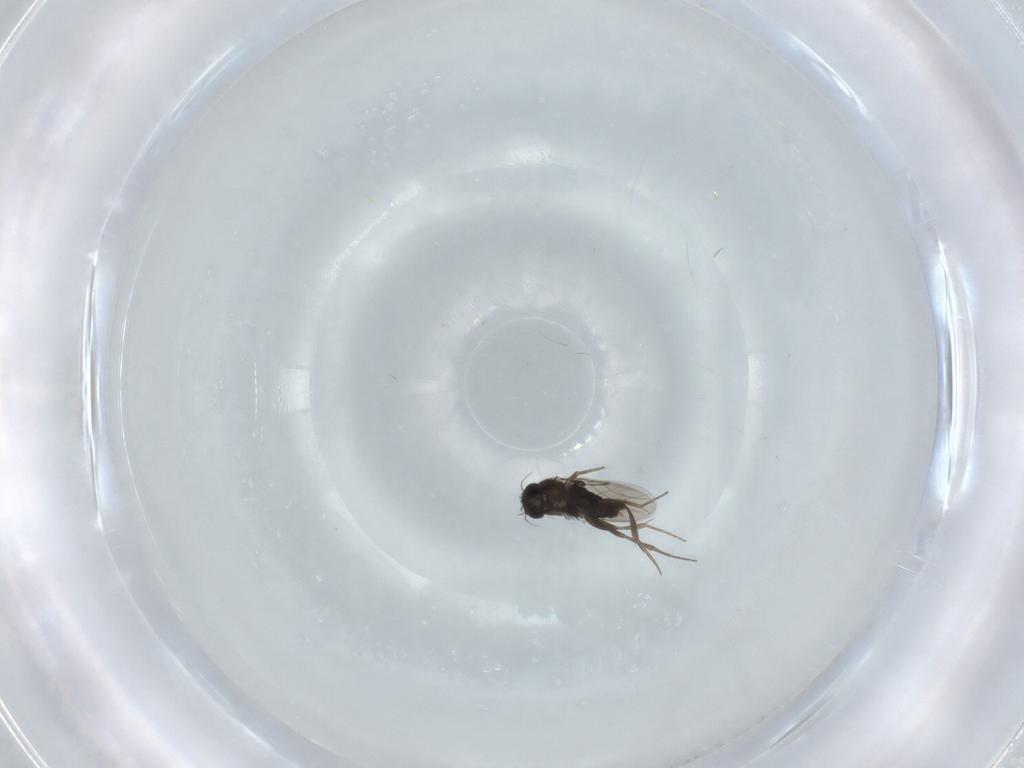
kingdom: Animalia
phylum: Arthropoda
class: Insecta
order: Diptera
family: Phoridae
